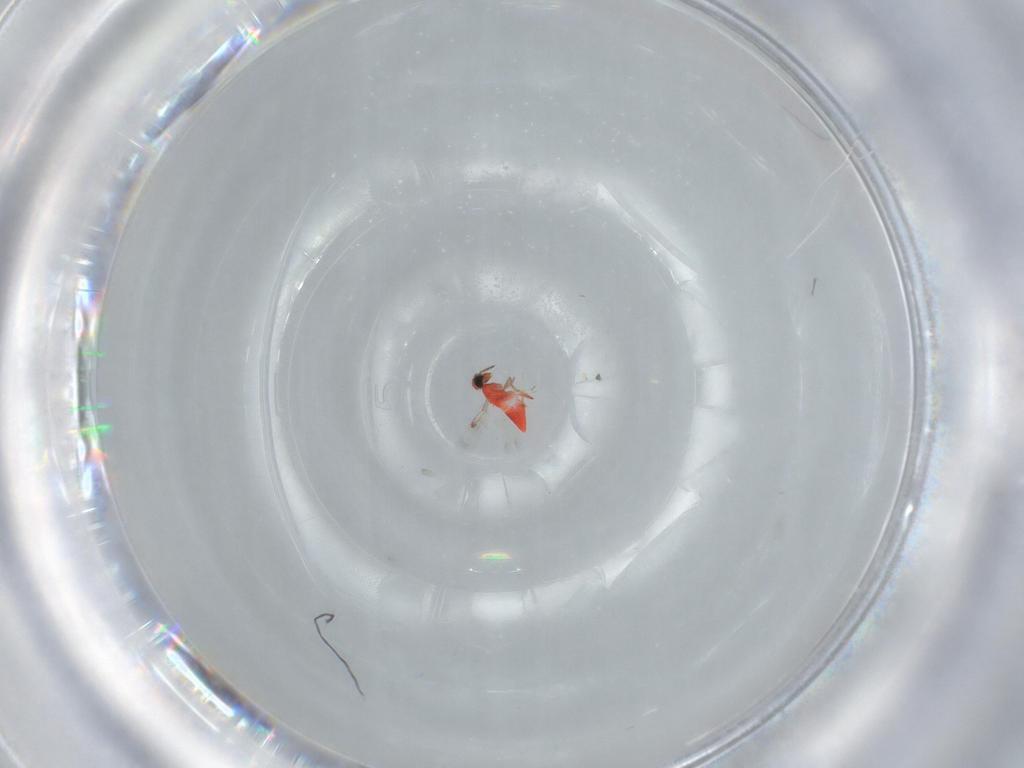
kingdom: Animalia
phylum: Arthropoda
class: Insecta
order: Hymenoptera
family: Trichogrammatidae
